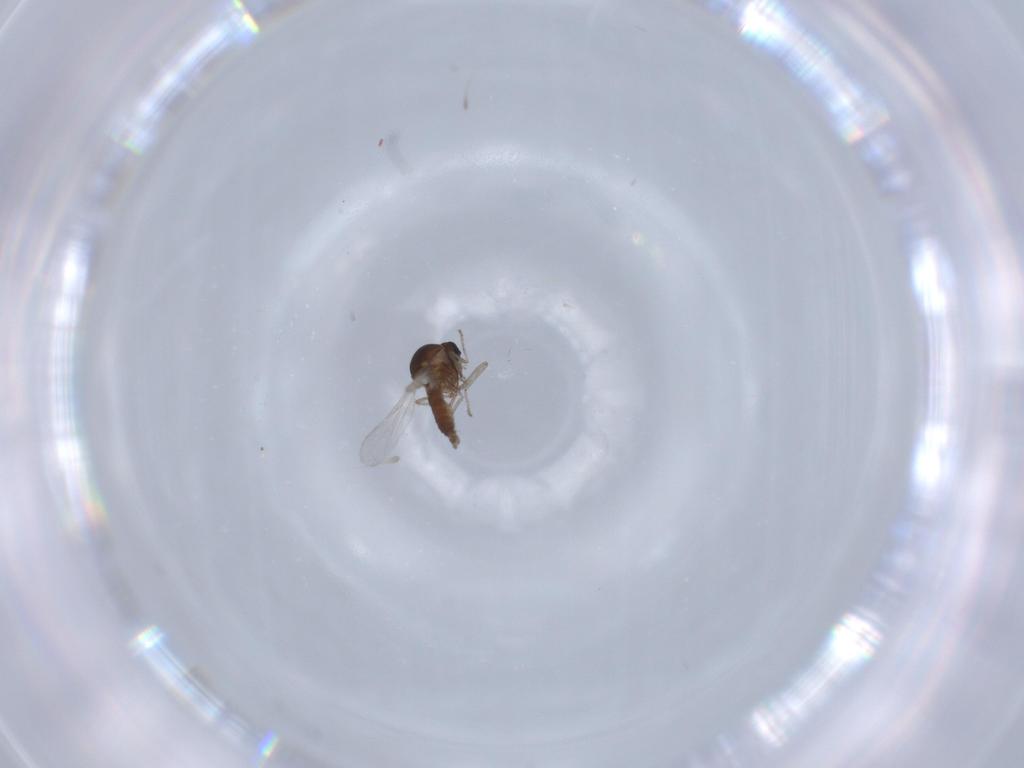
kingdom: Animalia
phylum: Arthropoda
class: Insecta
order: Diptera
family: Ceratopogonidae
